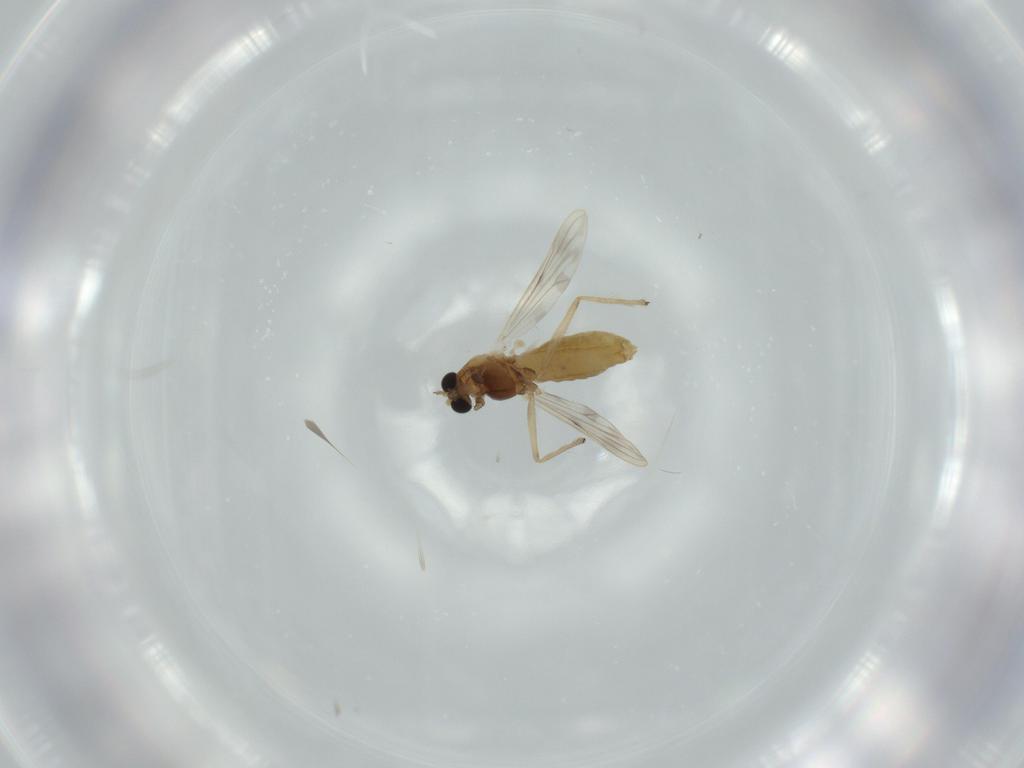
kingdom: Animalia
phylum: Arthropoda
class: Insecta
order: Diptera
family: Chironomidae
